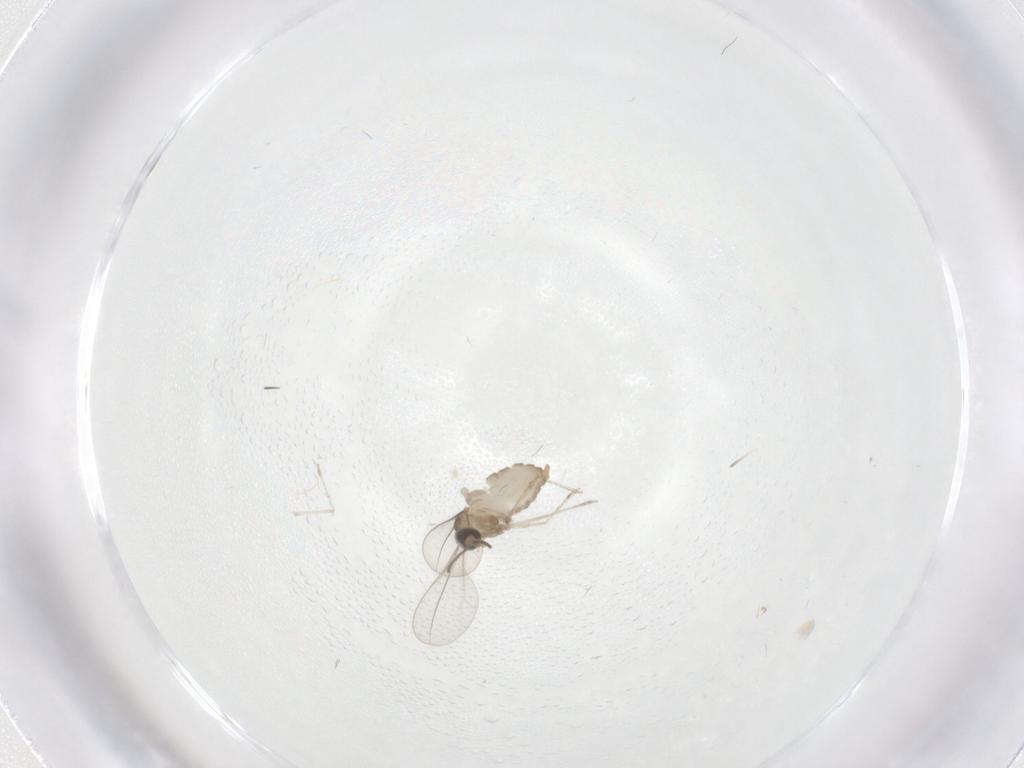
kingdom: Animalia
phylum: Arthropoda
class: Insecta
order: Diptera
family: Cecidomyiidae
